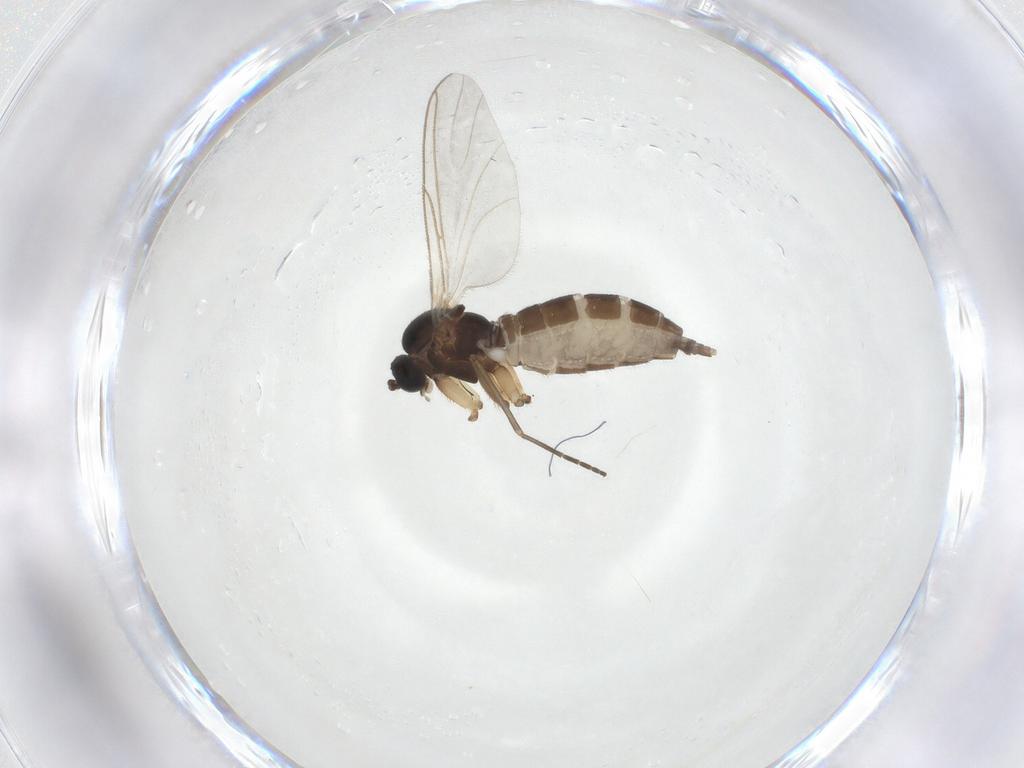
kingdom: Animalia
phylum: Arthropoda
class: Insecta
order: Diptera
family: Sciaridae
